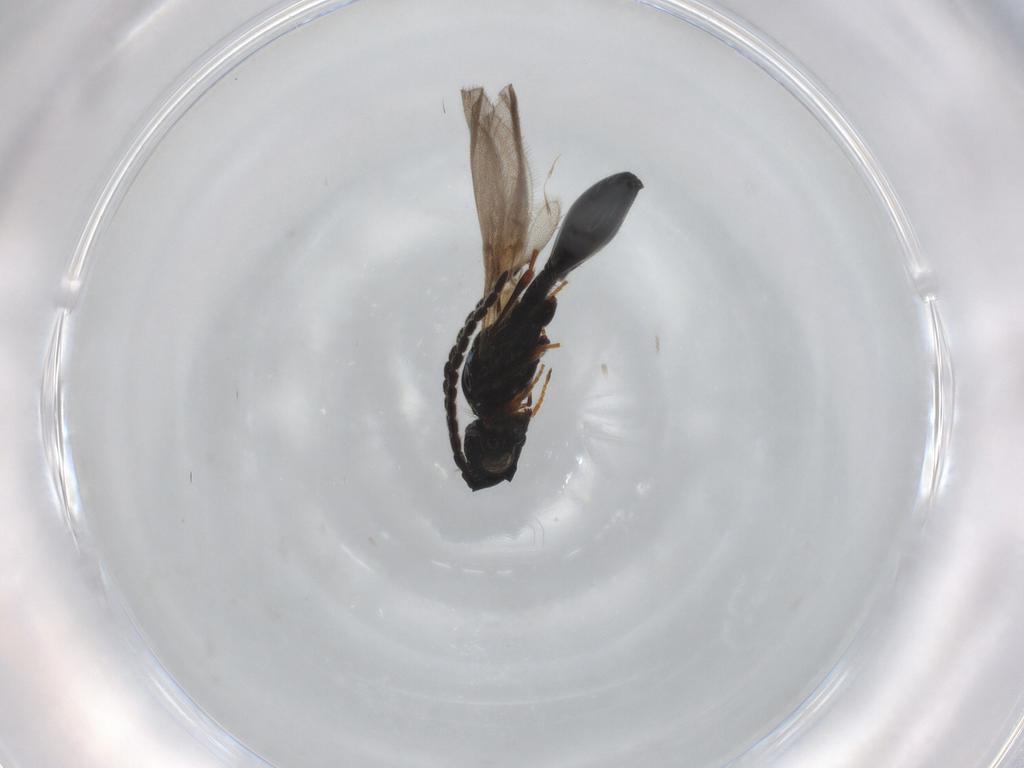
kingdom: Animalia
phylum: Arthropoda
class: Insecta
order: Hymenoptera
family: Diapriidae
